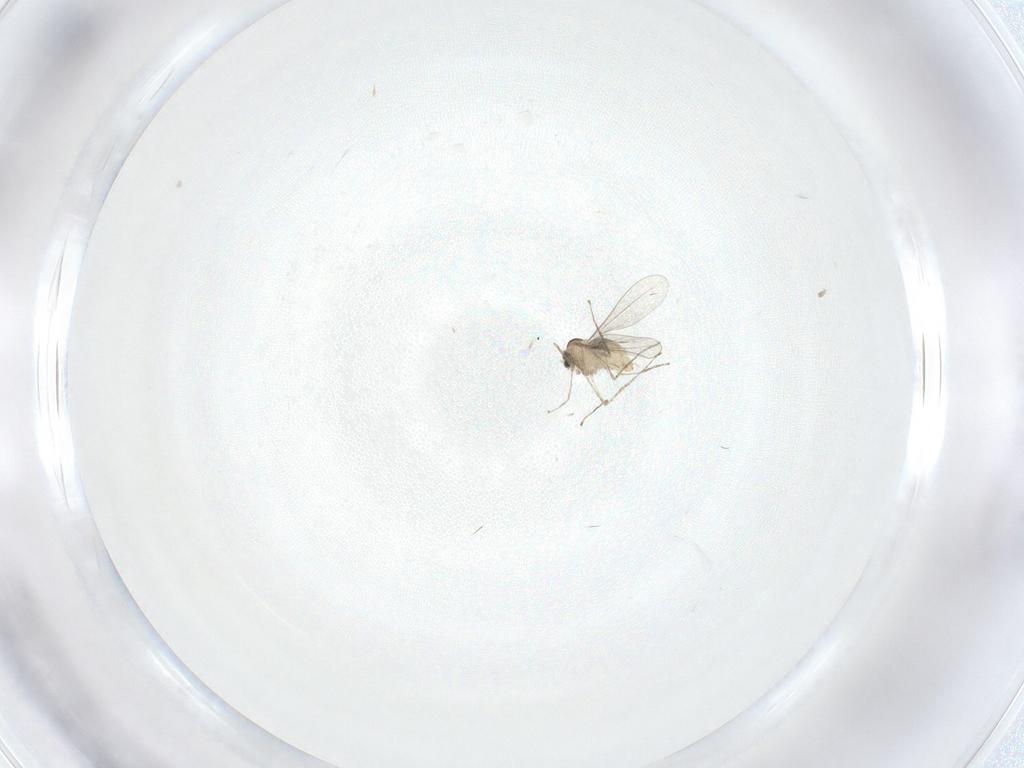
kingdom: Animalia
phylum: Arthropoda
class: Insecta
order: Diptera
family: Cecidomyiidae
